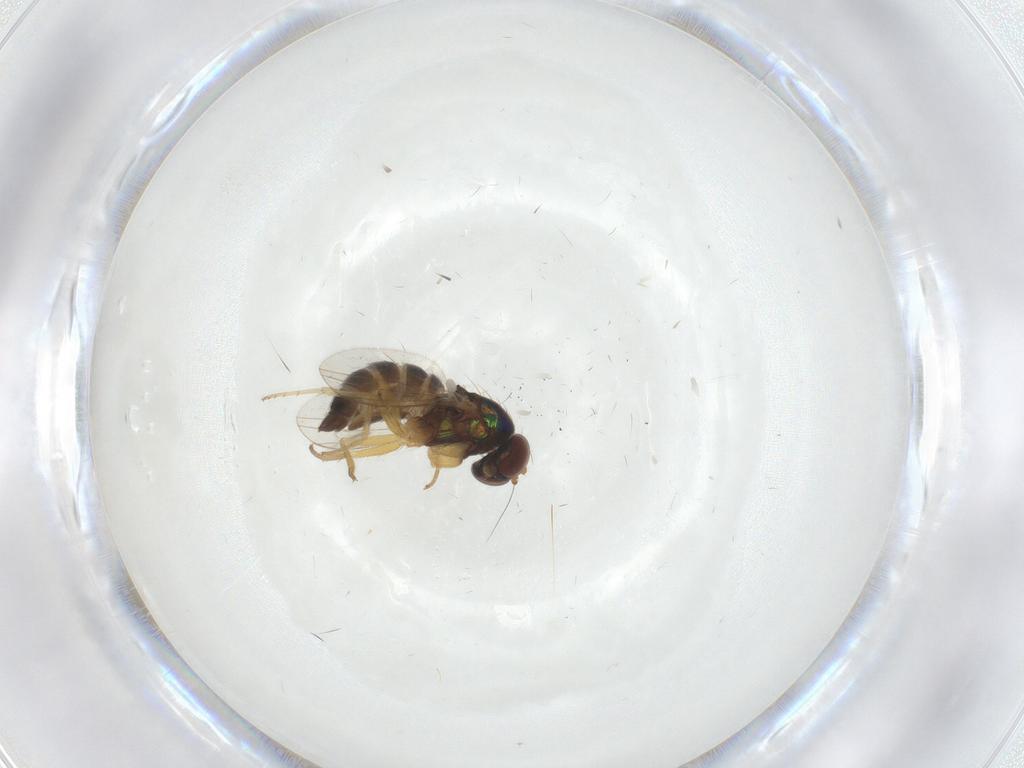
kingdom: Animalia
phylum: Arthropoda
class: Insecta
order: Diptera
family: Dolichopodidae
